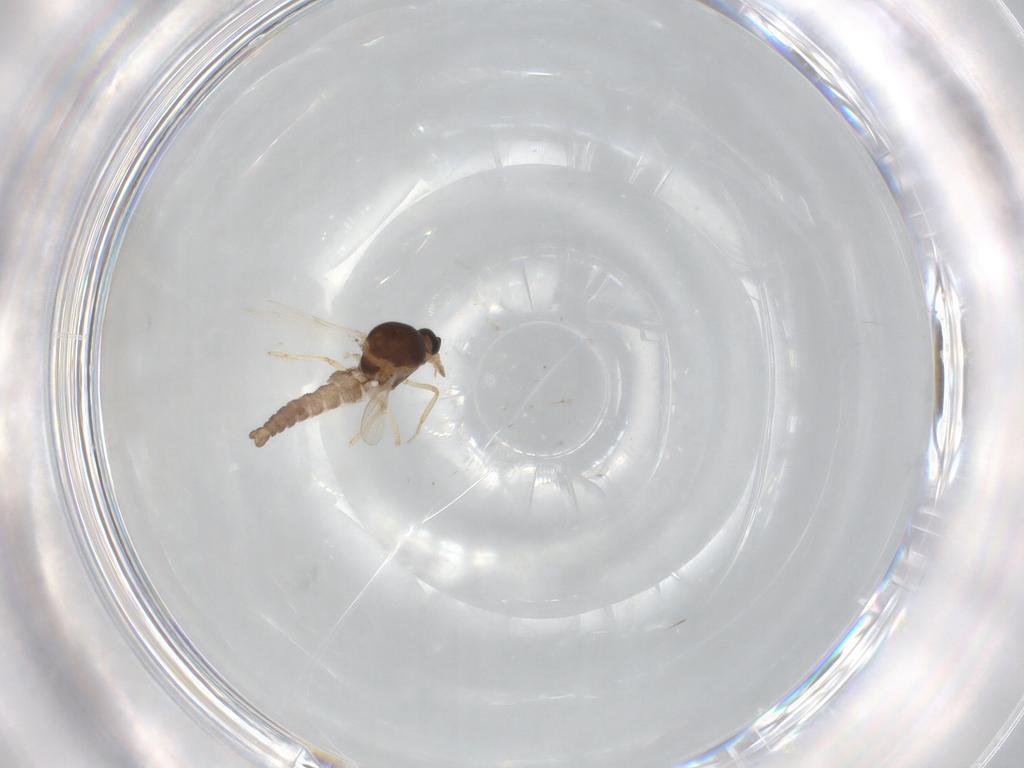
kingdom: Animalia
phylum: Arthropoda
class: Insecta
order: Diptera
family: Ceratopogonidae
